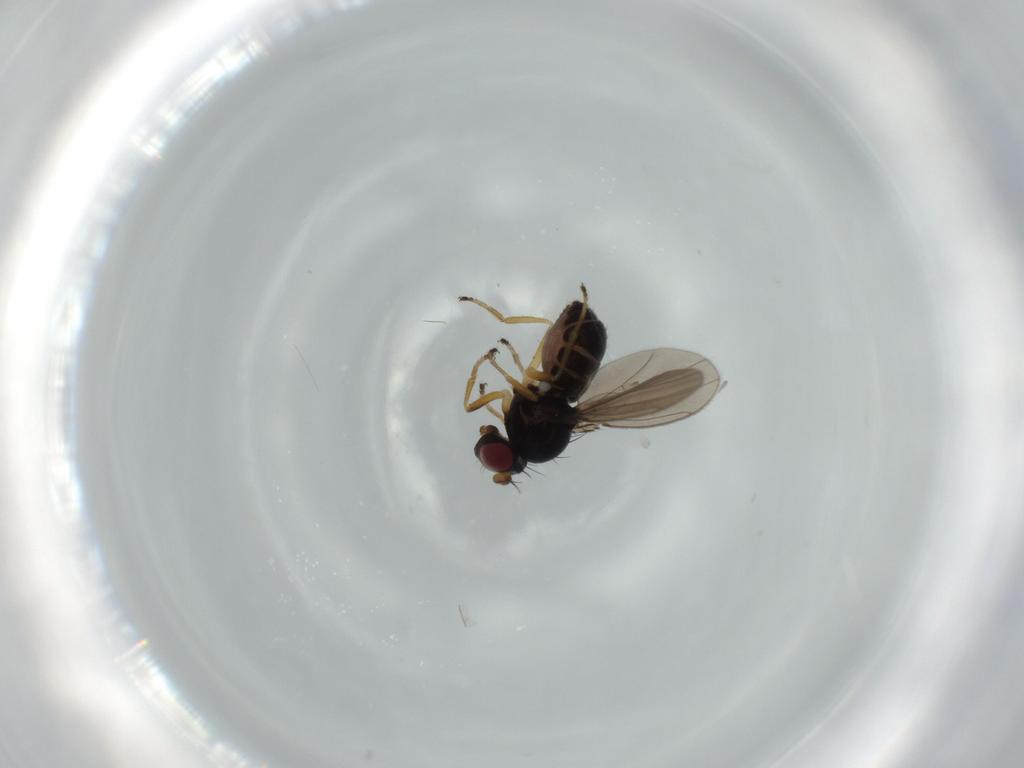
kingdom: Animalia
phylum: Arthropoda
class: Insecta
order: Diptera
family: Ephydridae
